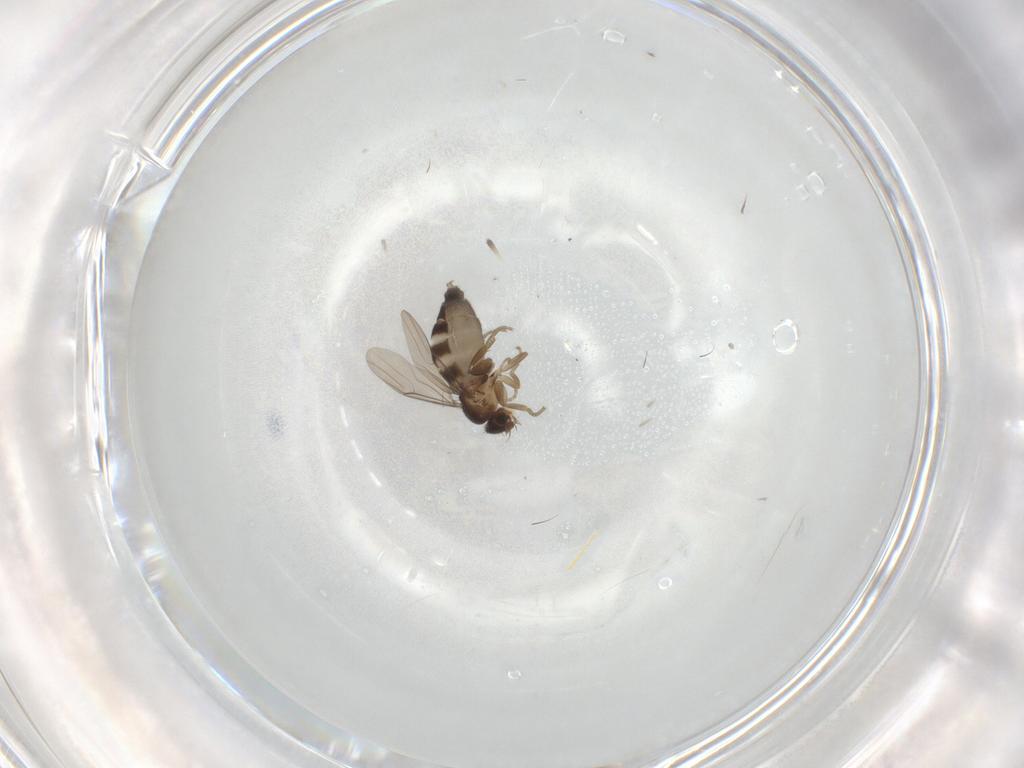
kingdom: Animalia
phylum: Arthropoda
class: Insecta
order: Diptera
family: Phoridae
